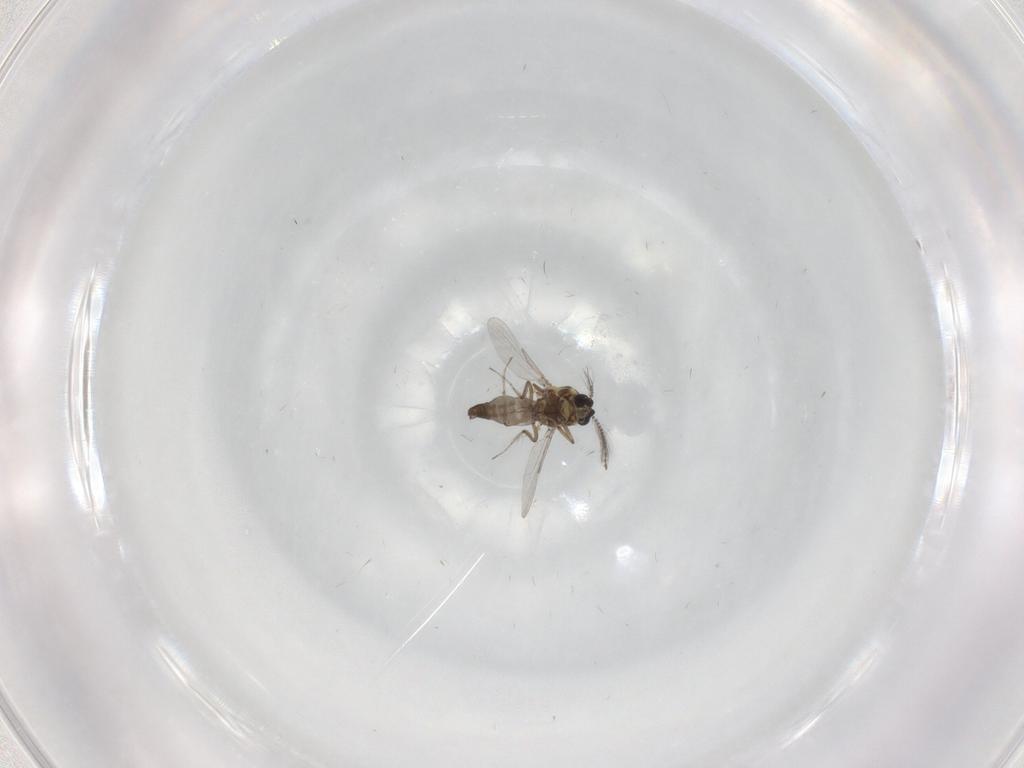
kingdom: Animalia
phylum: Arthropoda
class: Insecta
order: Diptera
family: Ceratopogonidae
